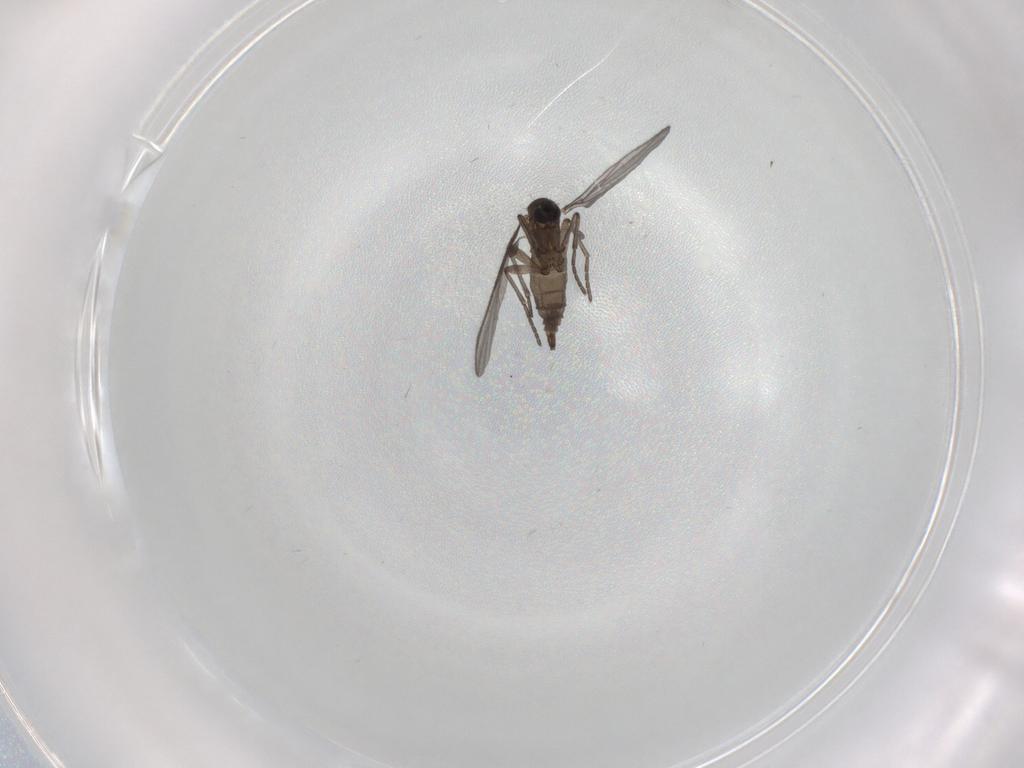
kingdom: Animalia
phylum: Arthropoda
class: Insecta
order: Diptera
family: Sciaridae
